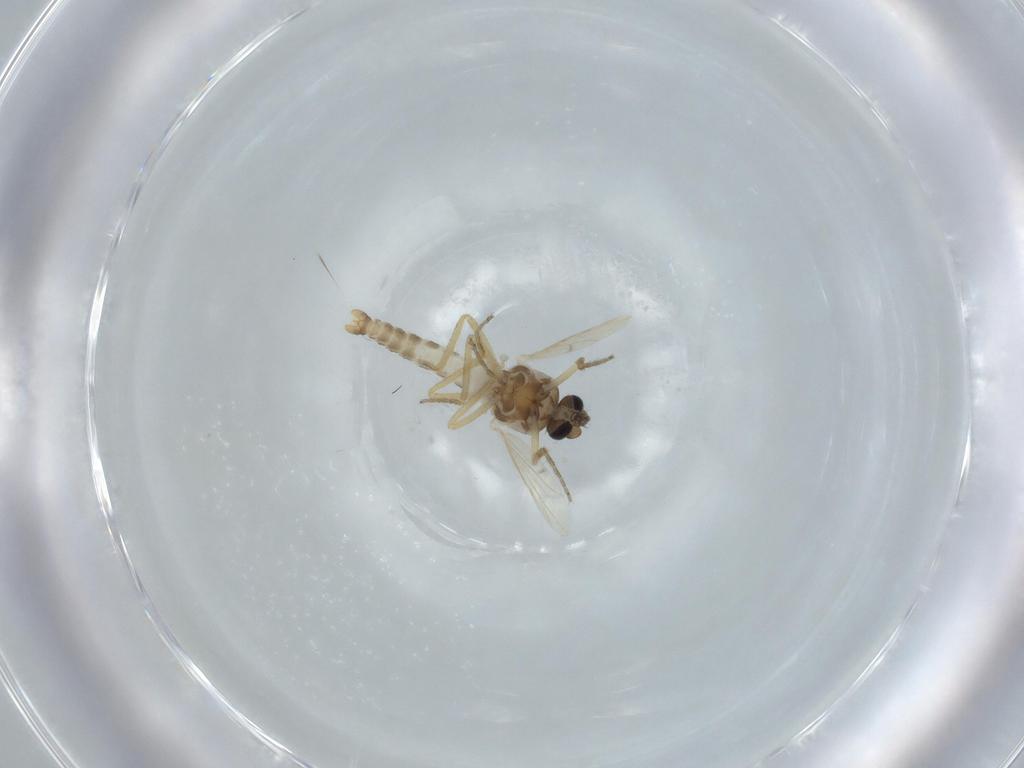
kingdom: Animalia
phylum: Arthropoda
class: Insecta
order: Diptera
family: Ceratopogonidae
